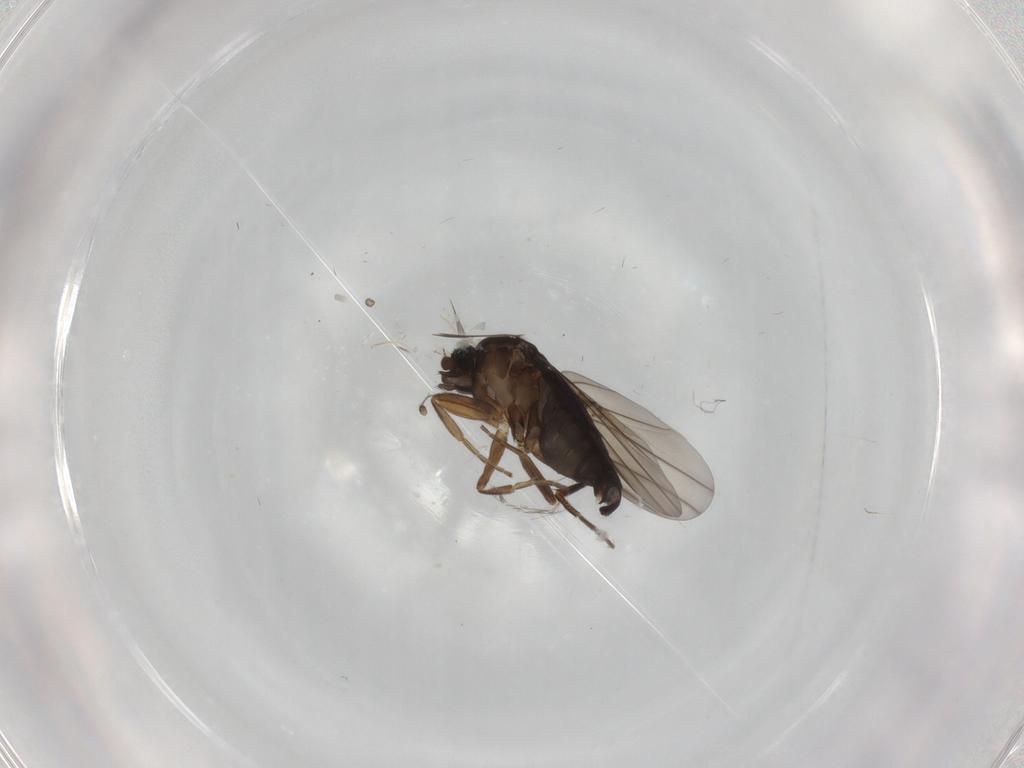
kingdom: Animalia
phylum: Arthropoda
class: Insecta
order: Diptera
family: Phoridae
